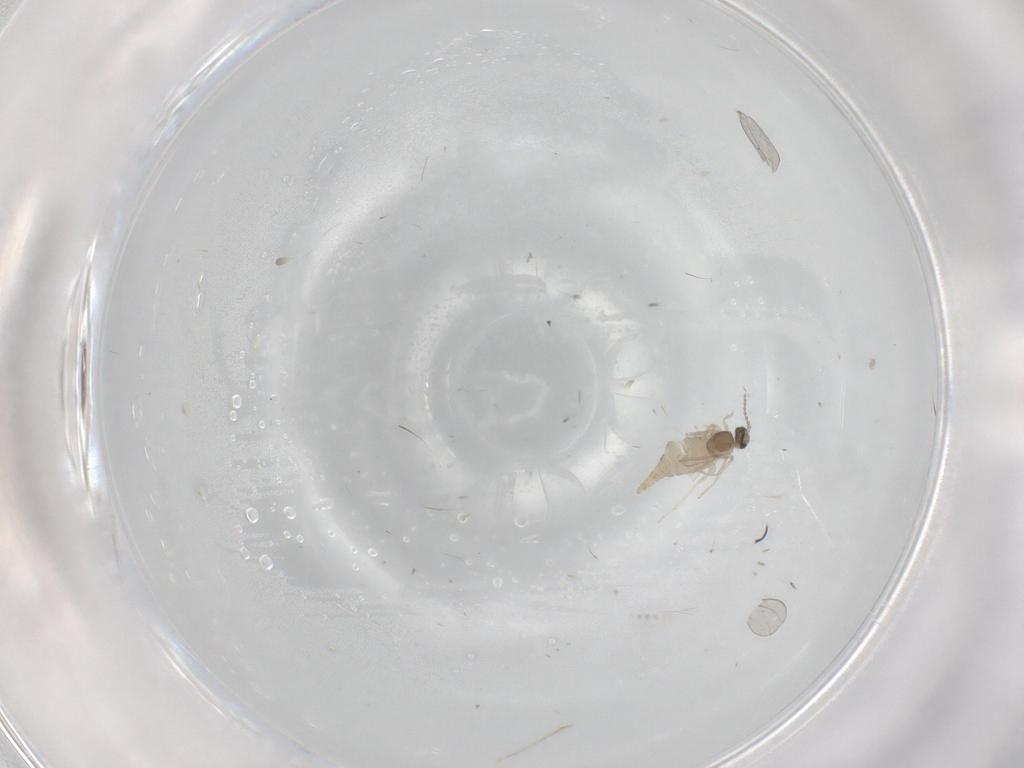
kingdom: Animalia
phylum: Arthropoda
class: Insecta
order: Diptera
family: Cecidomyiidae
